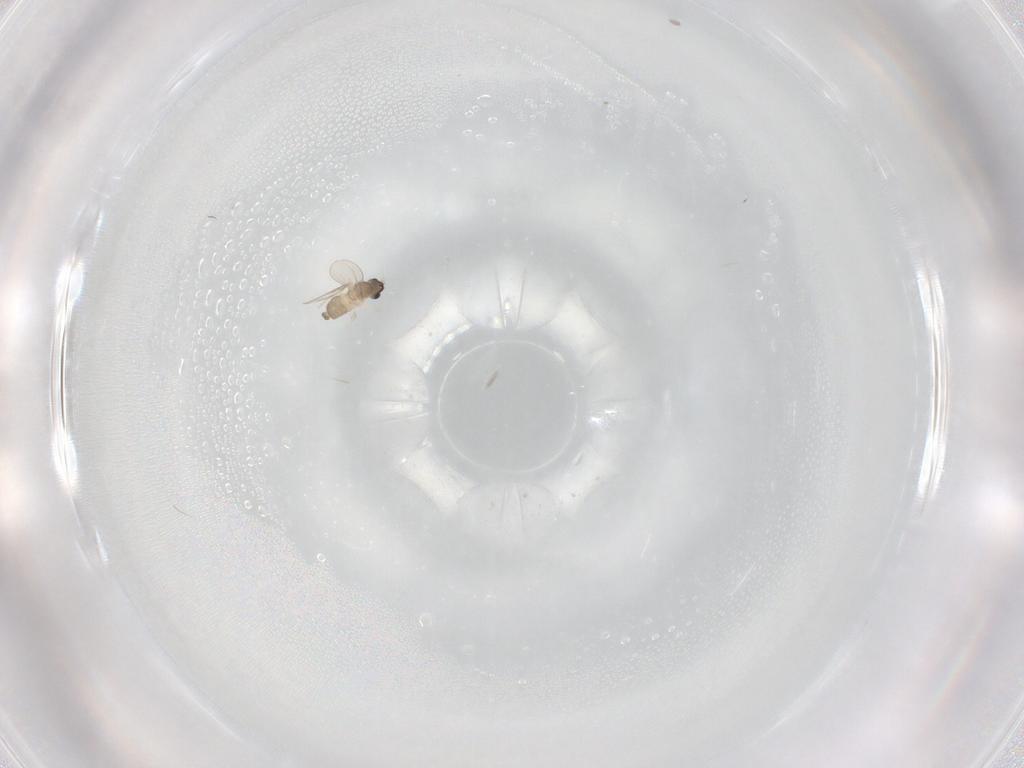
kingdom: Animalia
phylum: Arthropoda
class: Insecta
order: Diptera
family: Cecidomyiidae
